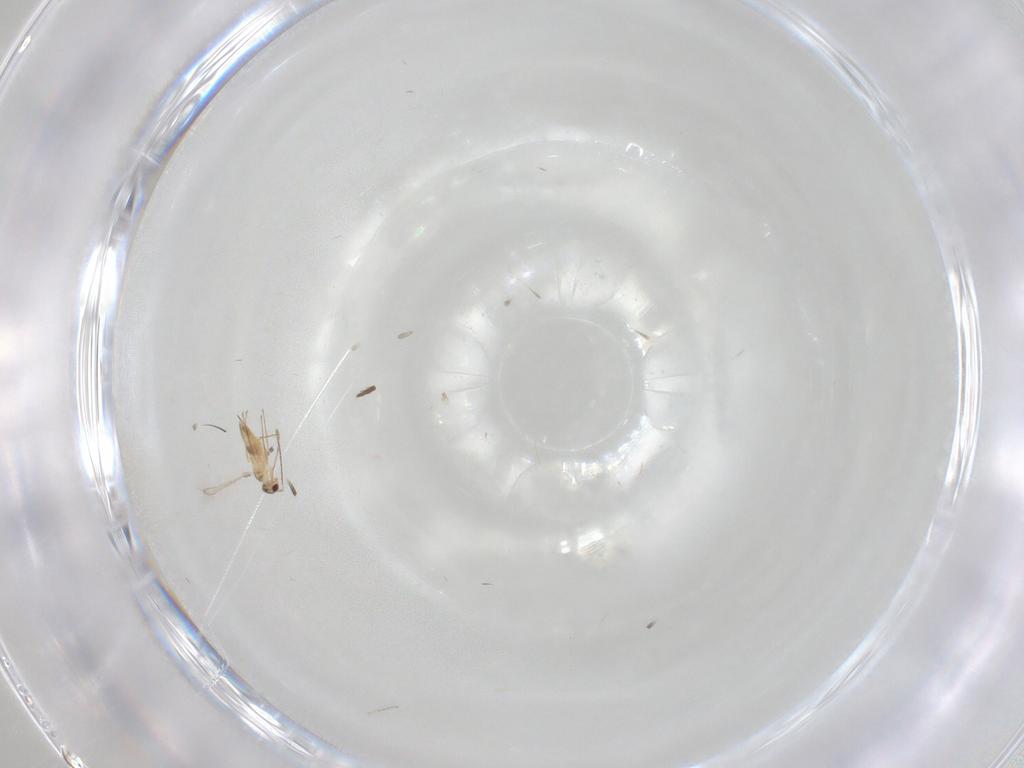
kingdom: Animalia
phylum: Arthropoda
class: Insecta
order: Hymenoptera
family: Mymaridae
